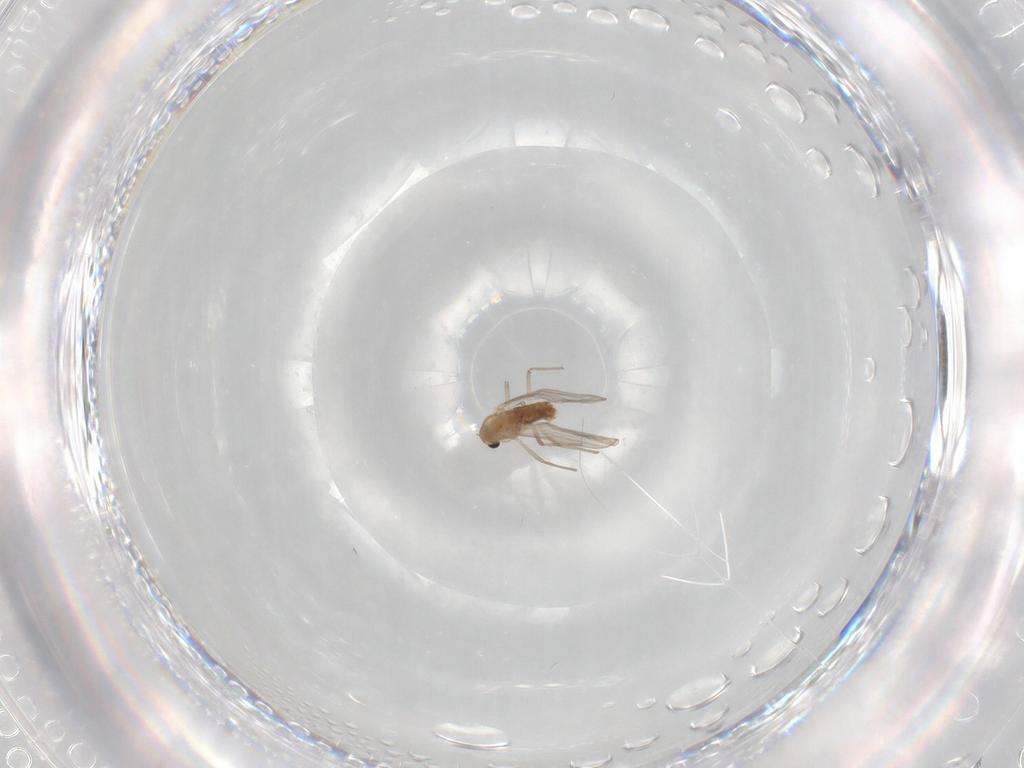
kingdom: Animalia
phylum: Arthropoda
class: Insecta
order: Diptera
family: Chironomidae
